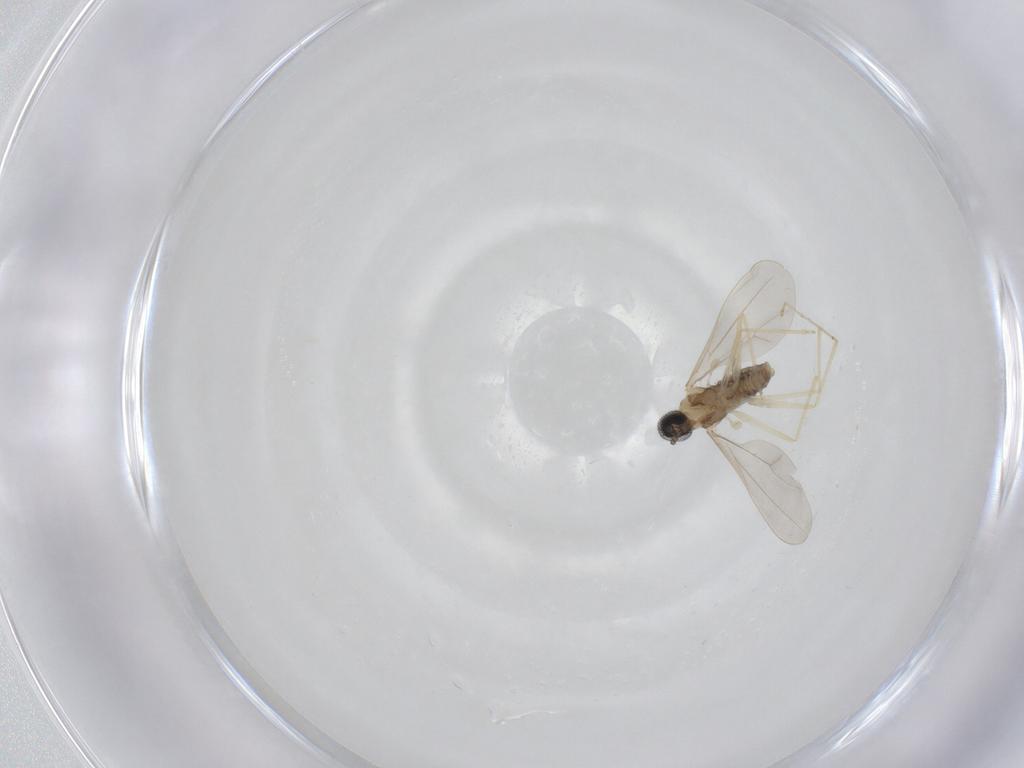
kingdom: Animalia
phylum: Arthropoda
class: Insecta
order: Diptera
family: Cecidomyiidae
